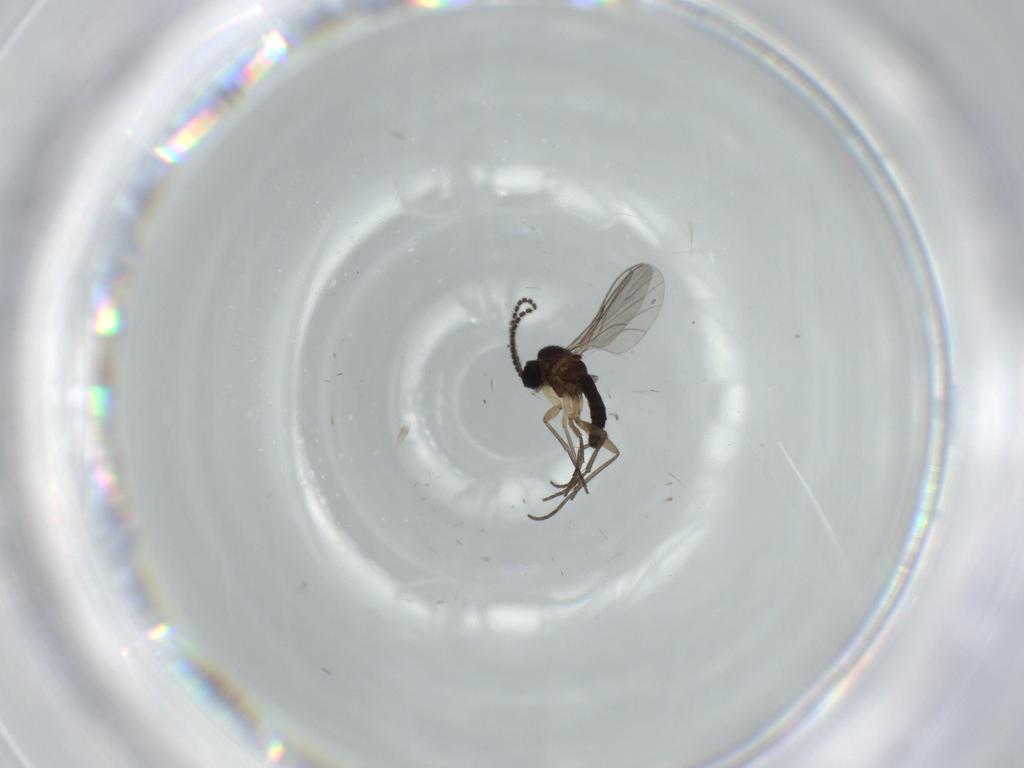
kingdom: Animalia
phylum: Arthropoda
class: Insecta
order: Diptera
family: Sciaridae
